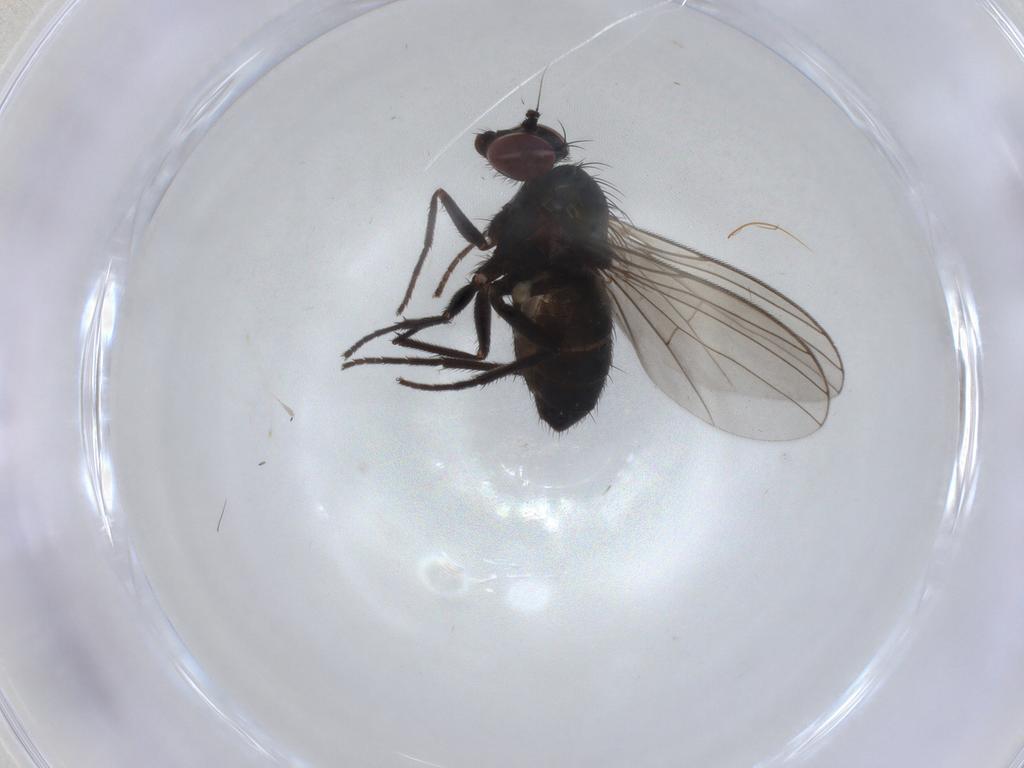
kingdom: Animalia
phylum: Arthropoda
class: Insecta
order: Diptera
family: Dolichopodidae
